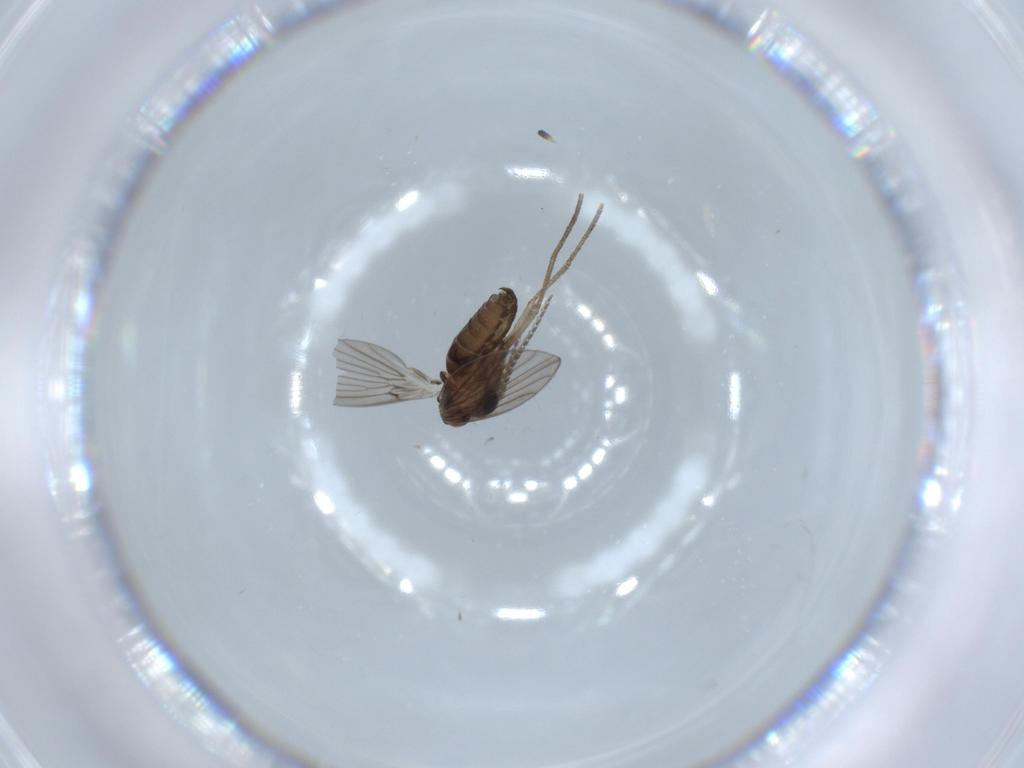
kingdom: Animalia
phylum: Arthropoda
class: Insecta
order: Diptera
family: Psychodidae
